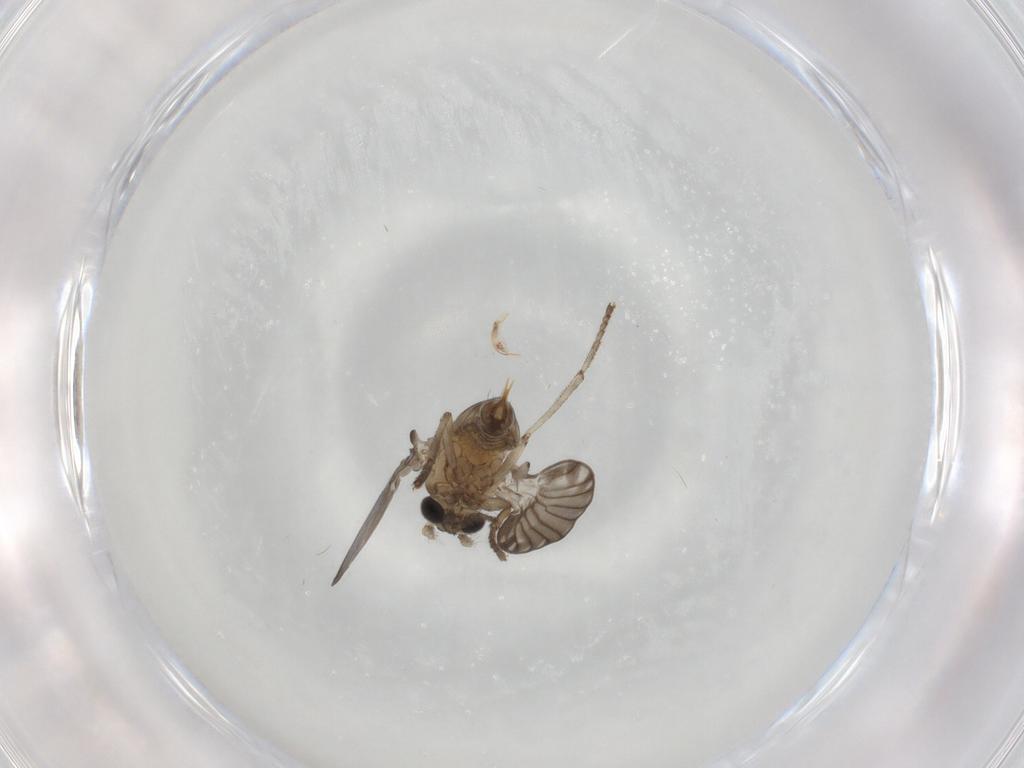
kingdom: Animalia
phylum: Arthropoda
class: Insecta
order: Diptera
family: Psychodidae
